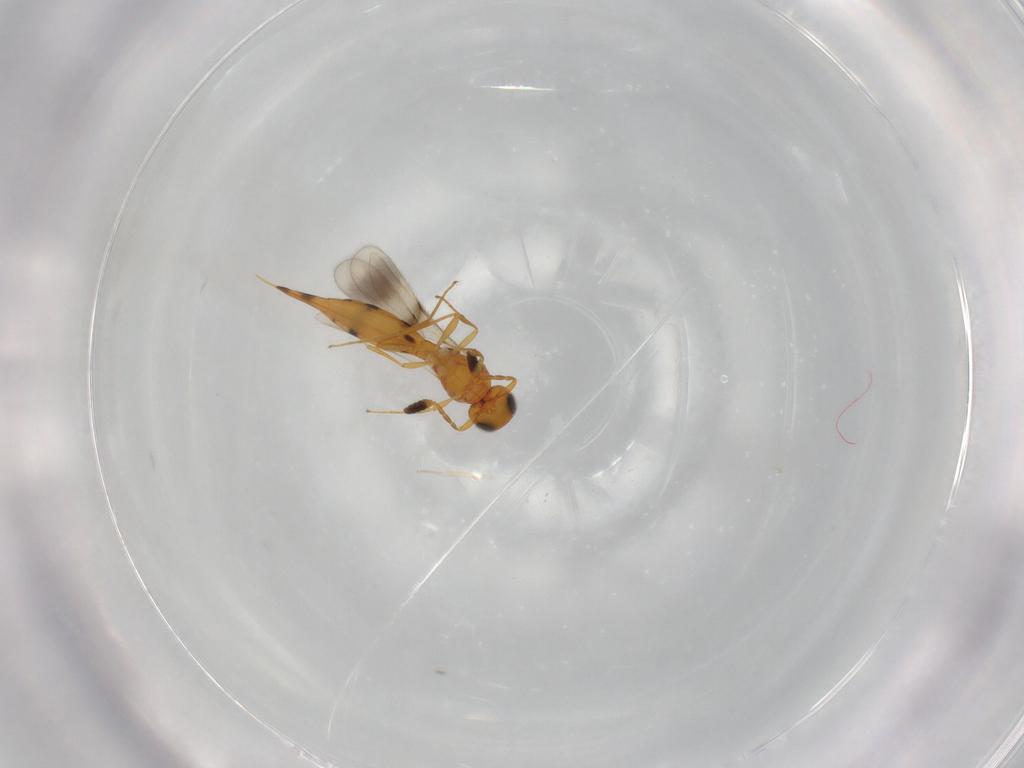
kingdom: Animalia
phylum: Arthropoda
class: Insecta
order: Hymenoptera
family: Scelionidae
